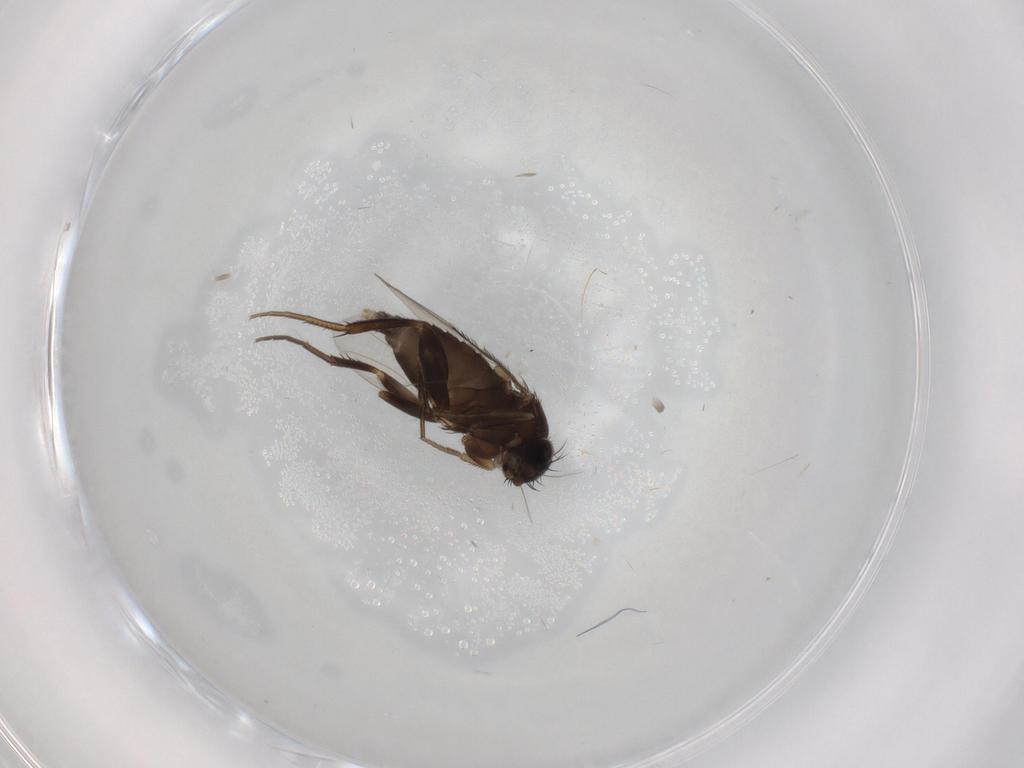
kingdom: Animalia
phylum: Arthropoda
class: Insecta
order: Diptera
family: Phoridae
